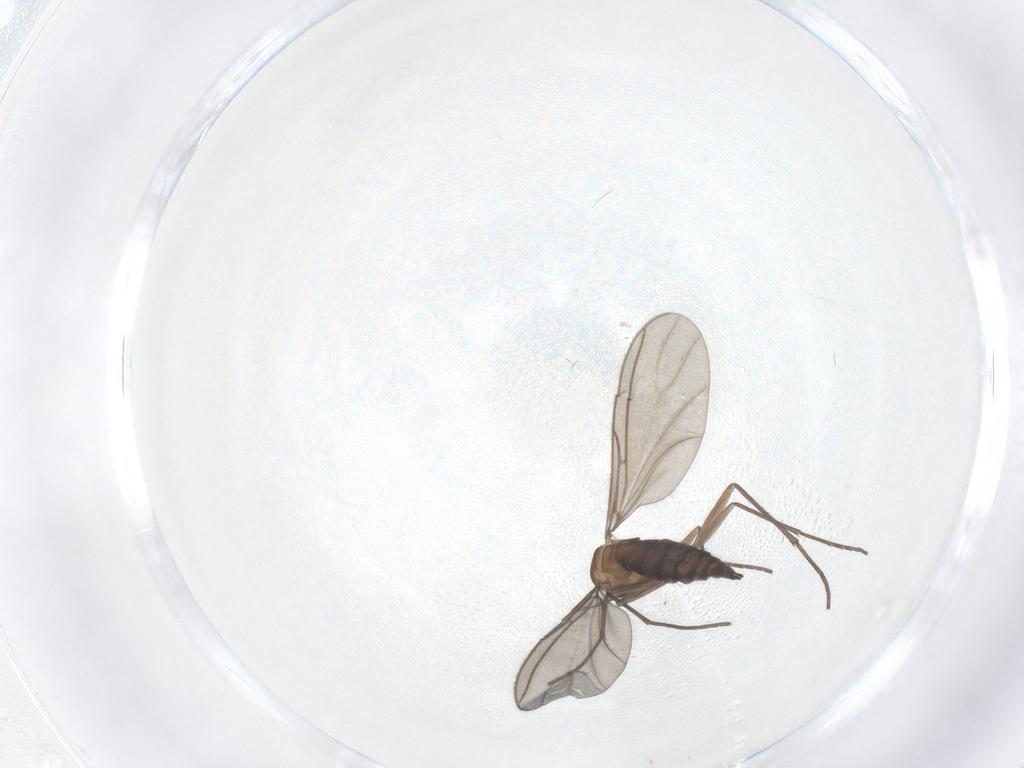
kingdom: Animalia
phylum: Arthropoda
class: Insecta
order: Diptera
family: Sciaridae
